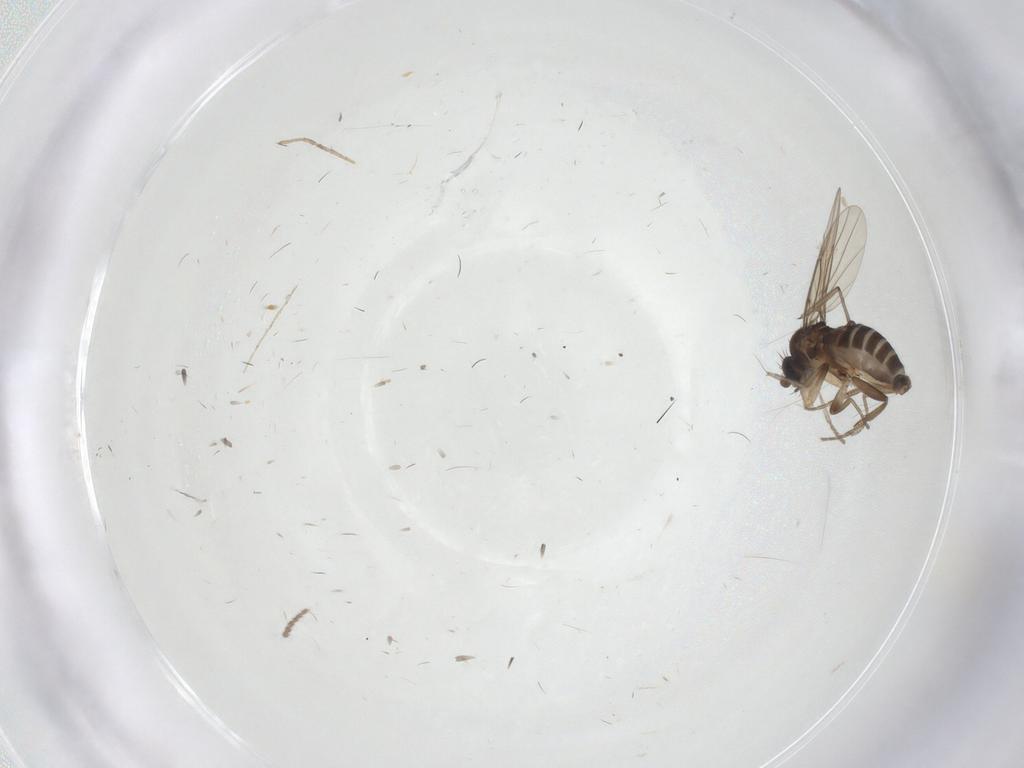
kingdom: Animalia
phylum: Arthropoda
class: Insecta
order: Diptera
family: Phoridae
